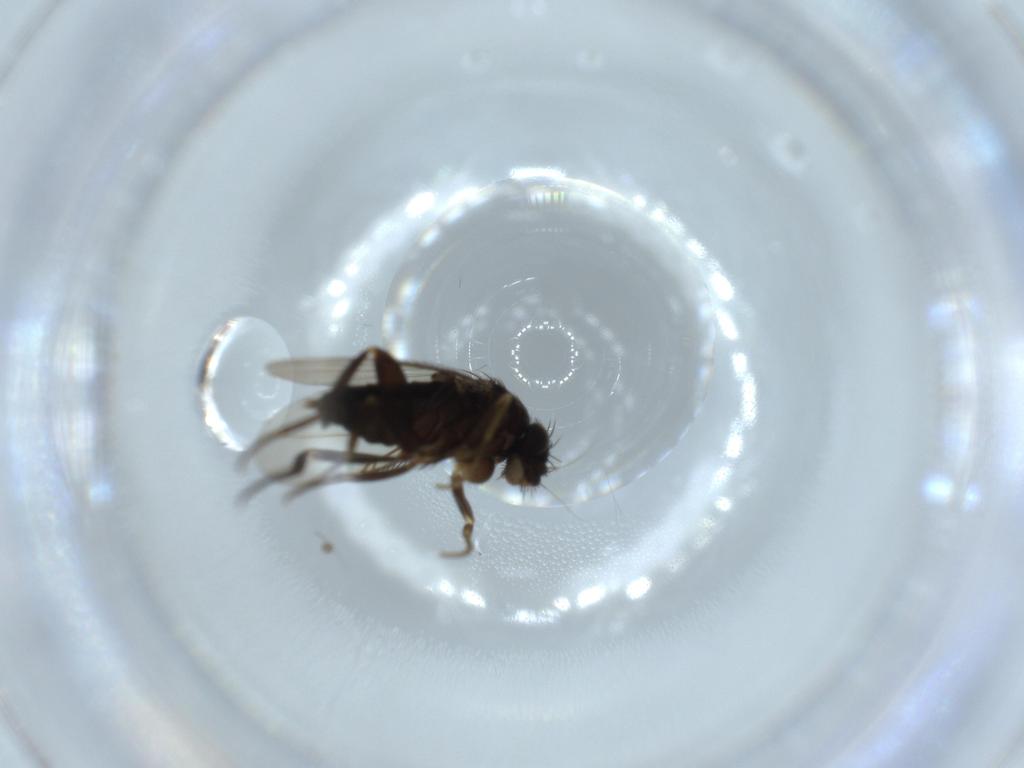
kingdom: Animalia
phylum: Arthropoda
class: Insecta
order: Diptera
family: Phoridae
